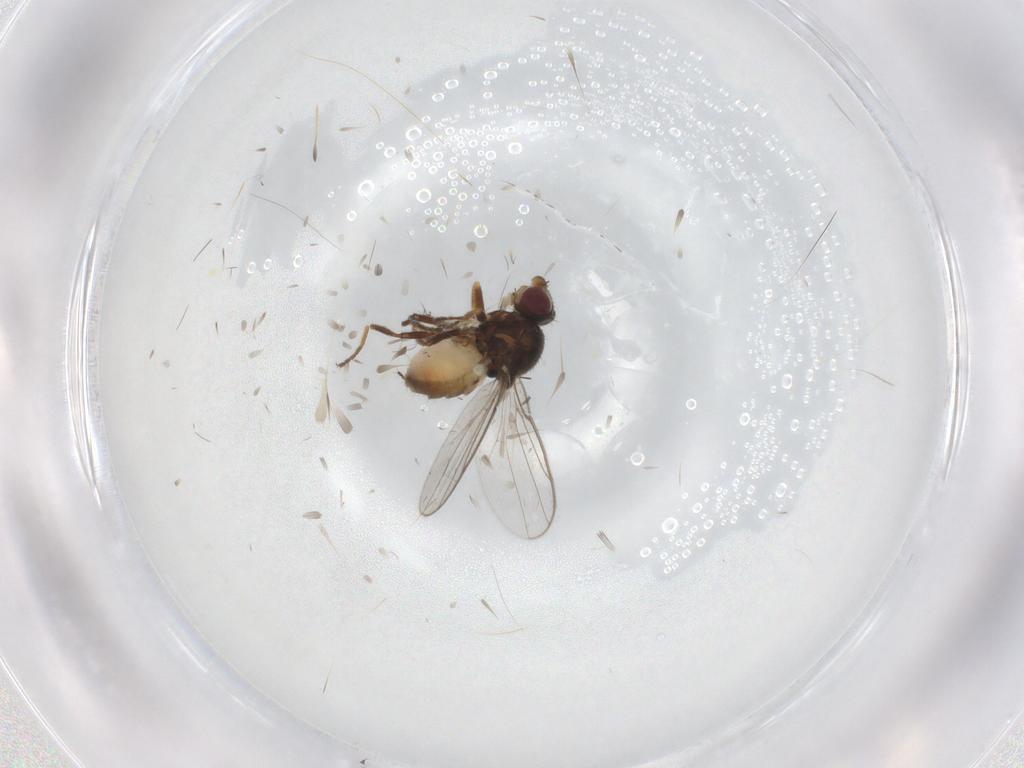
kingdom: Animalia
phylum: Arthropoda
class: Insecta
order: Diptera
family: Chloropidae
